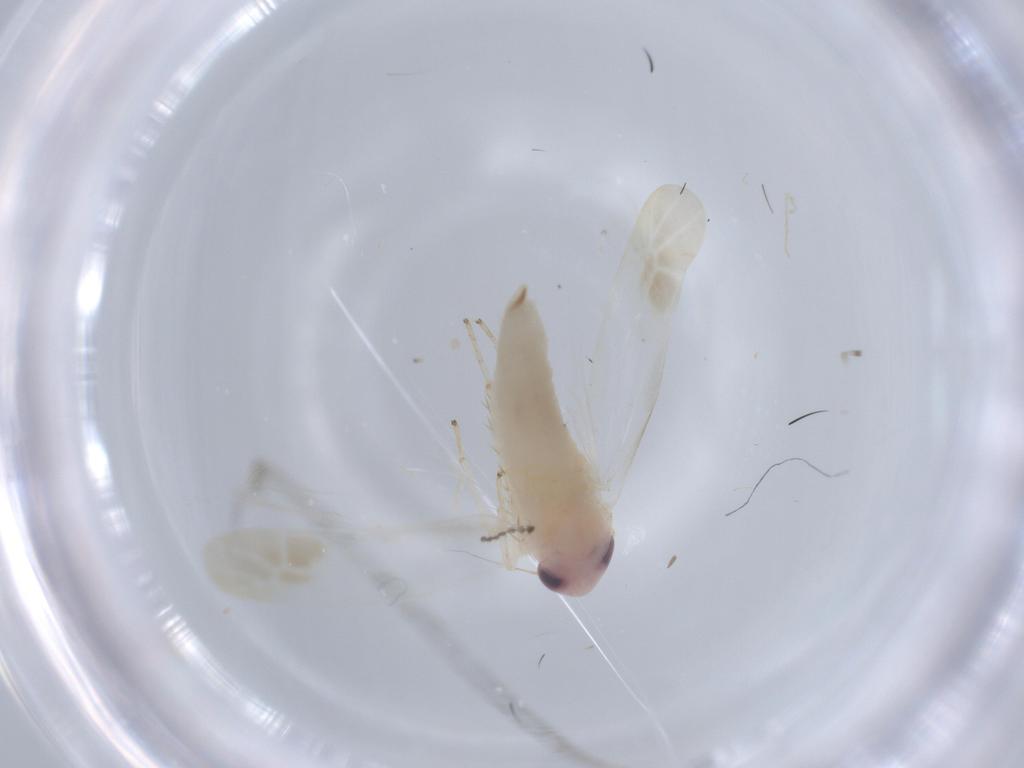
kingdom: Animalia
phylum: Arthropoda
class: Insecta
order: Hemiptera
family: Cicadellidae
